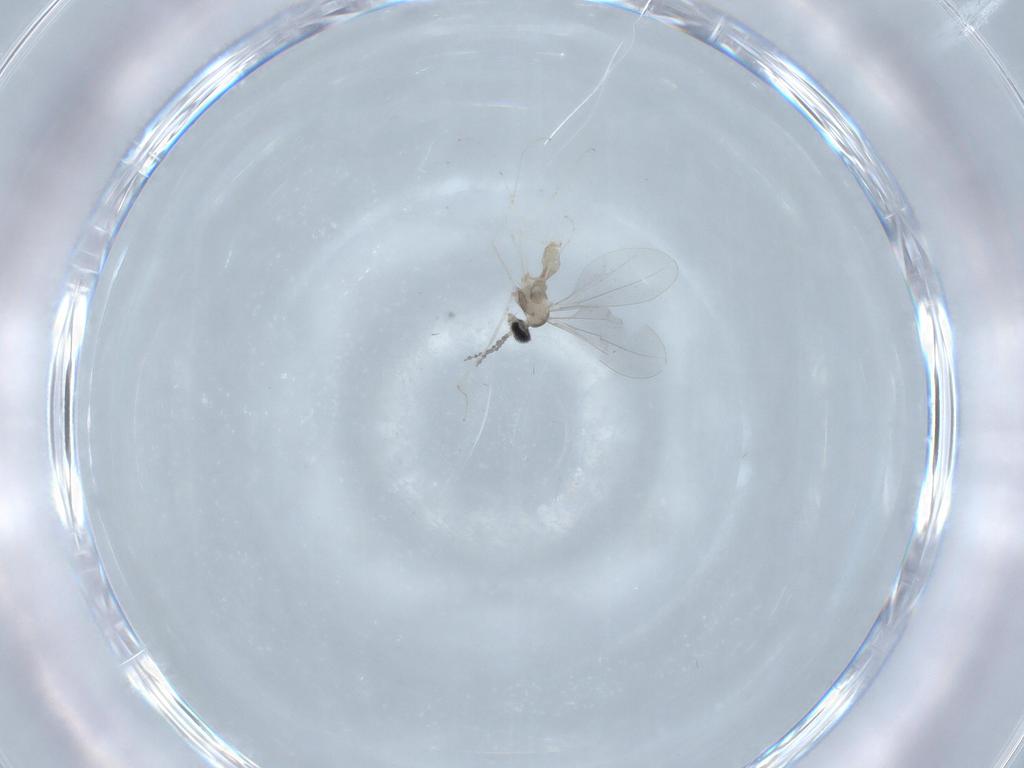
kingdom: Animalia
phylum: Arthropoda
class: Insecta
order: Diptera
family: Cecidomyiidae
